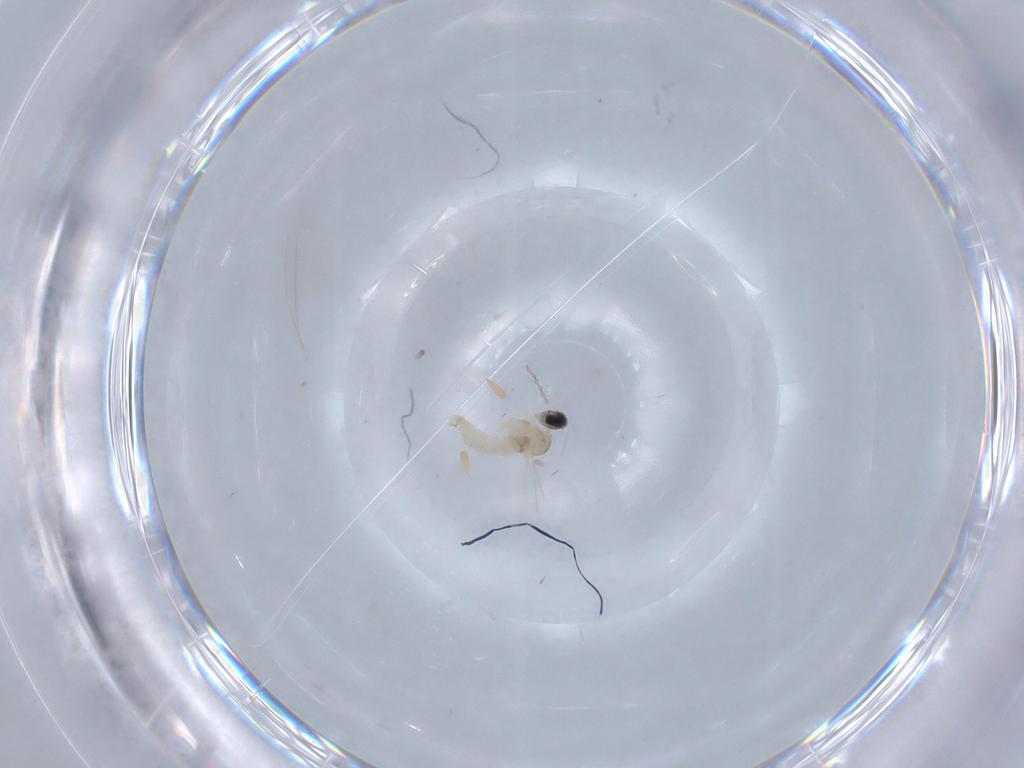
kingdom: Animalia
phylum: Arthropoda
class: Insecta
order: Diptera
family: Cecidomyiidae
